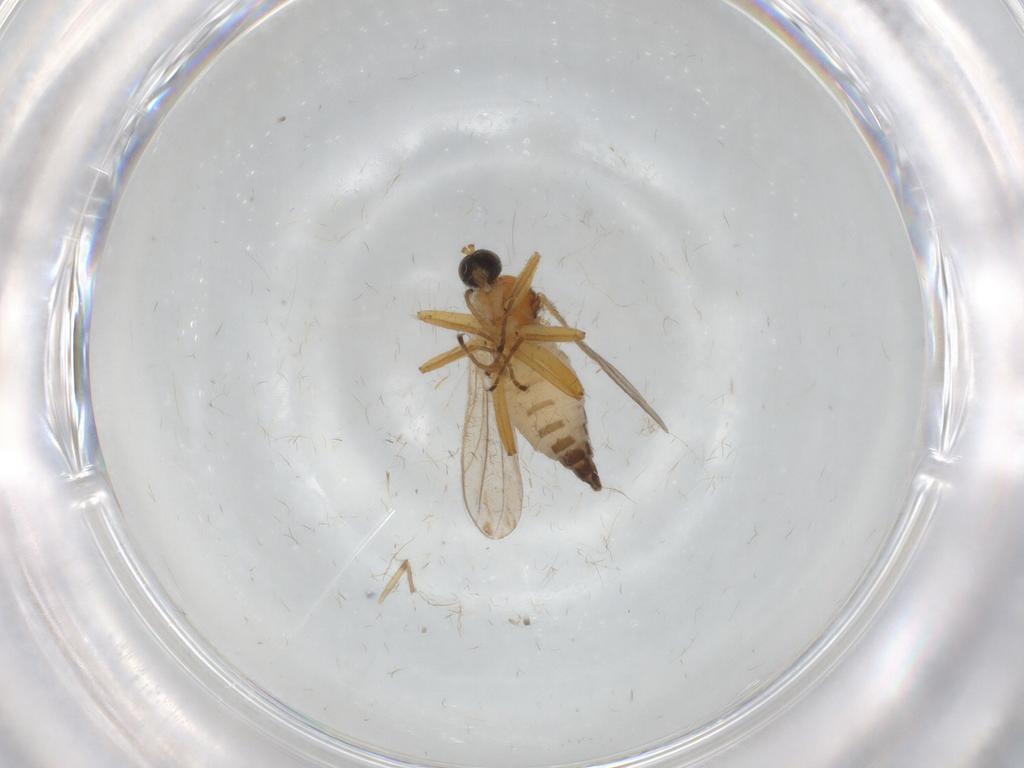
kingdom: Animalia
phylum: Arthropoda
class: Insecta
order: Diptera
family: Hybotidae
